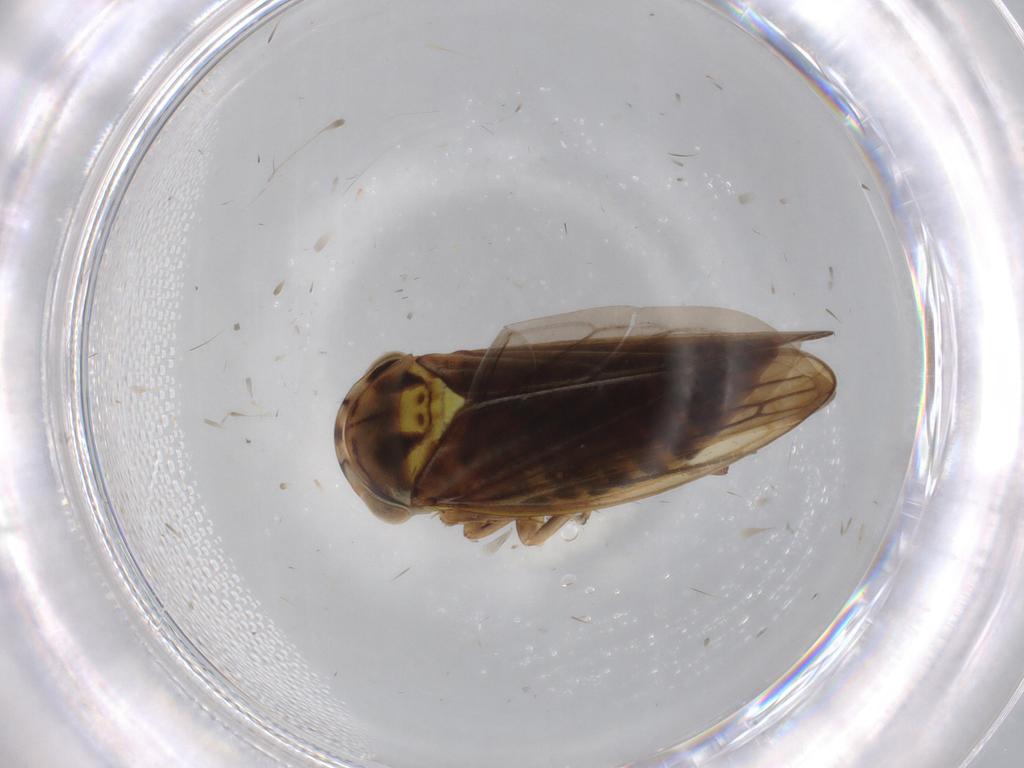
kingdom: Animalia
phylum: Arthropoda
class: Insecta
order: Hemiptera
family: Cicadellidae
